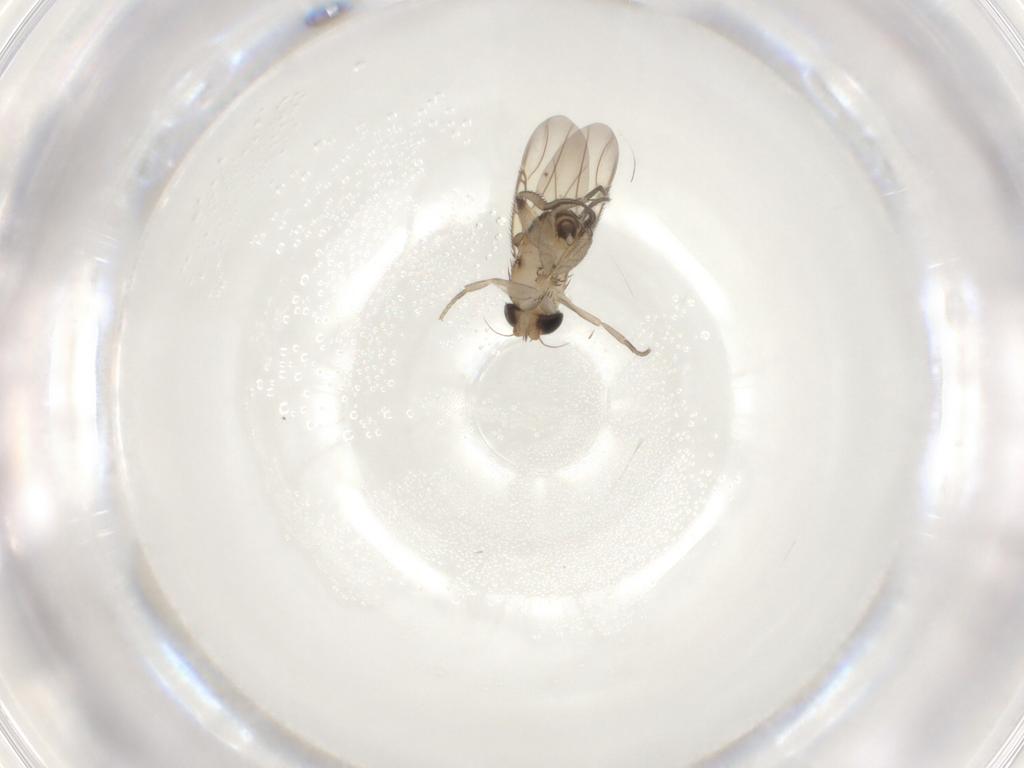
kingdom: Animalia
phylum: Arthropoda
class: Insecta
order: Diptera
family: Phoridae
